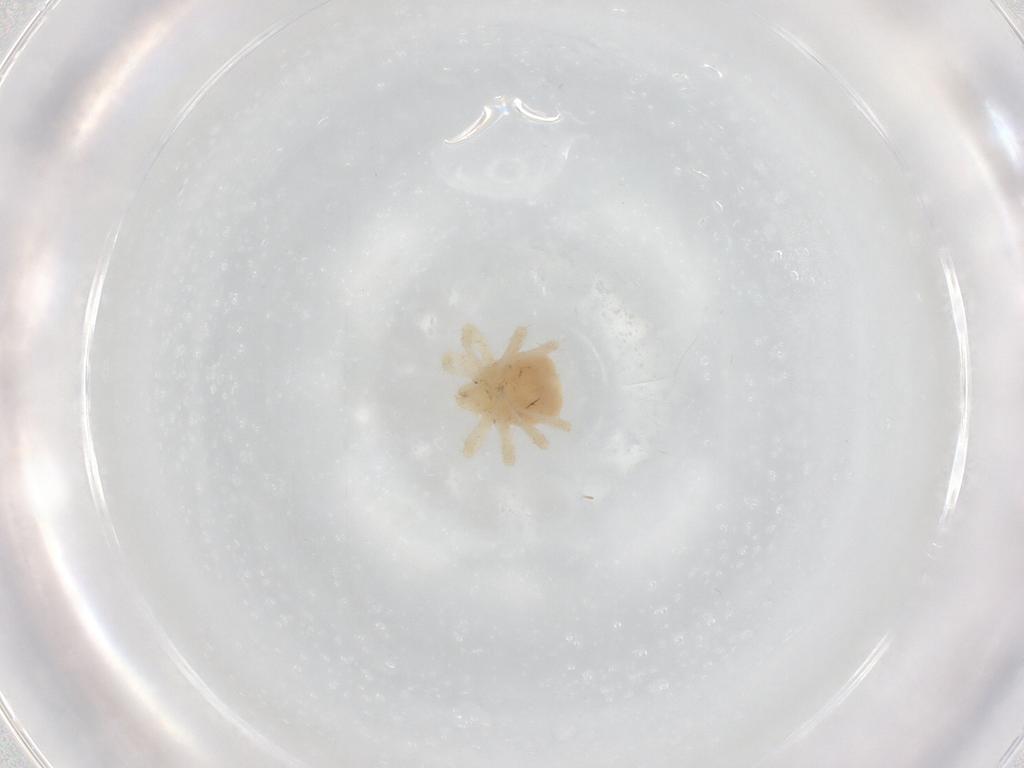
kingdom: Animalia
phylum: Arthropoda
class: Arachnida
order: Trombidiformes
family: Anystidae
